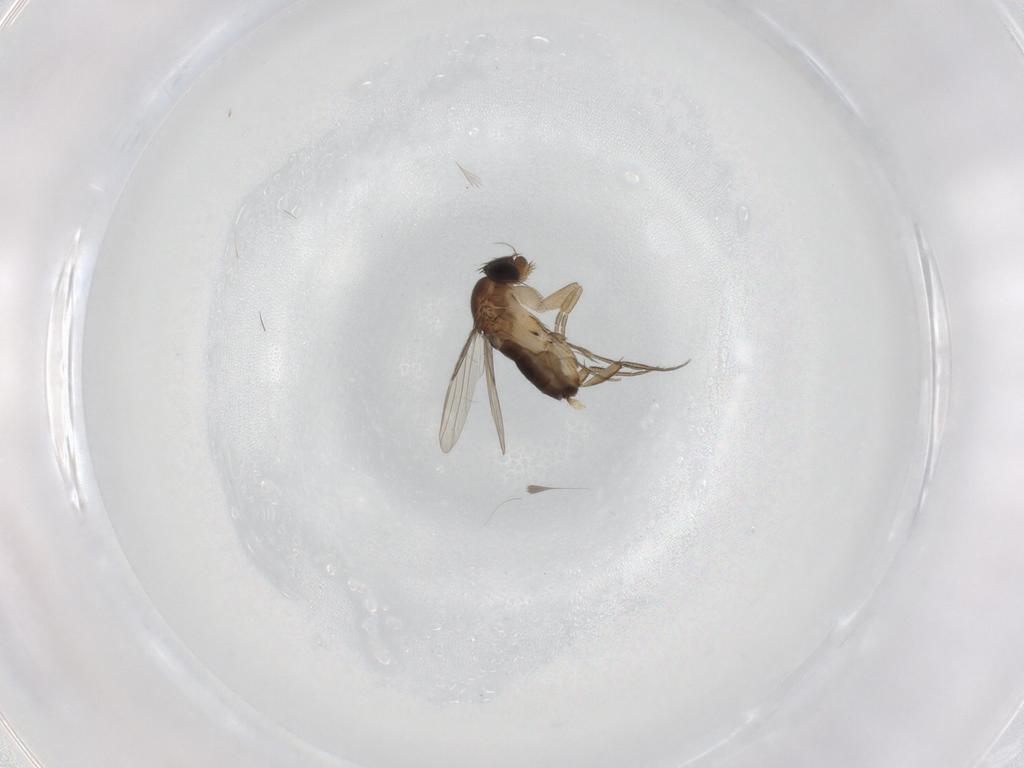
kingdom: Animalia
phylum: Arthropoda
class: Insecta
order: Diptera
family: Phoridae
